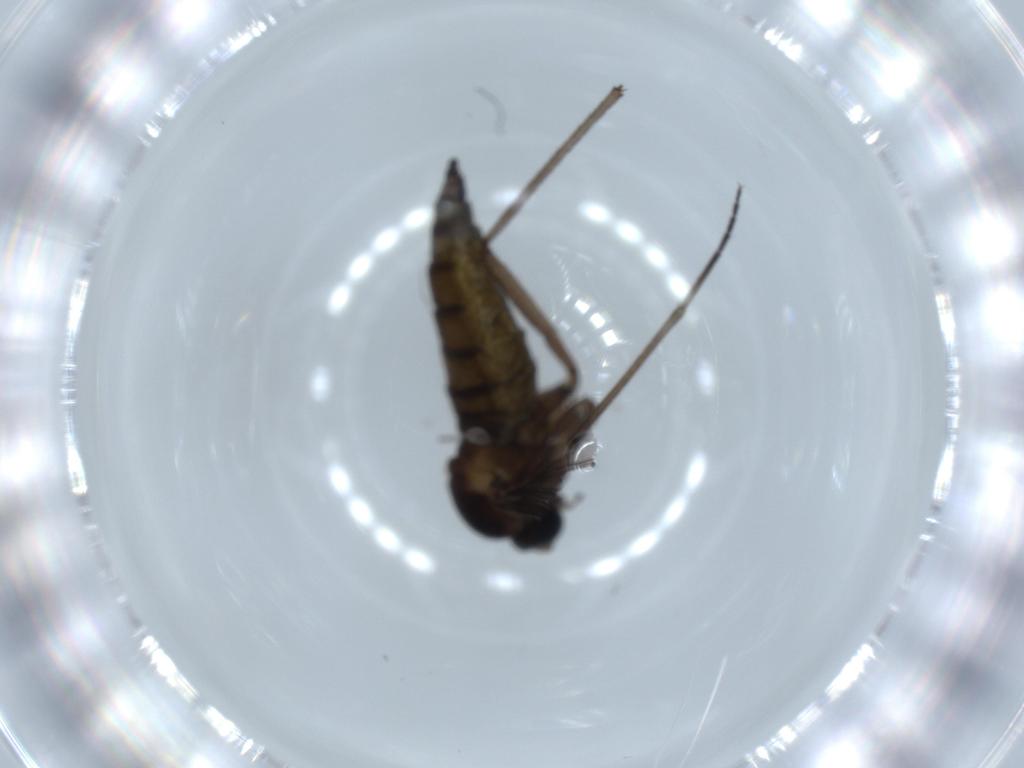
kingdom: Animalia
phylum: Arthropoda
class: Insecta
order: Diptera
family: Sciaridae
